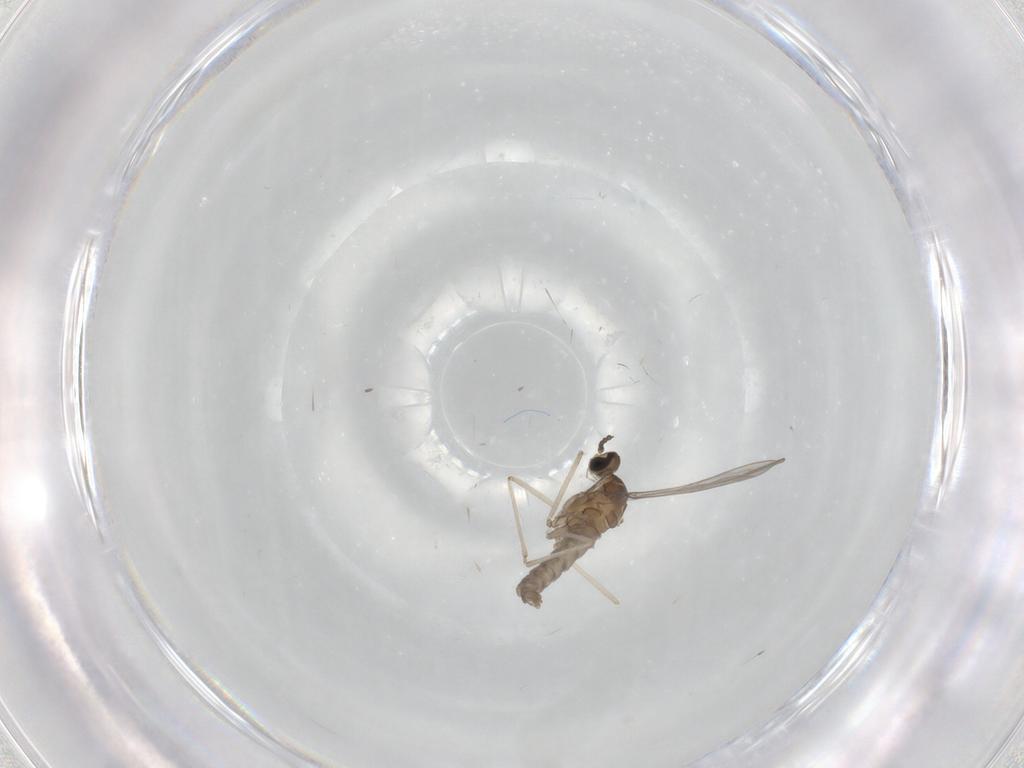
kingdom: Animalia
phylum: Arthropoda
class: Insecta
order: Diptera
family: Cecidomyiidae
